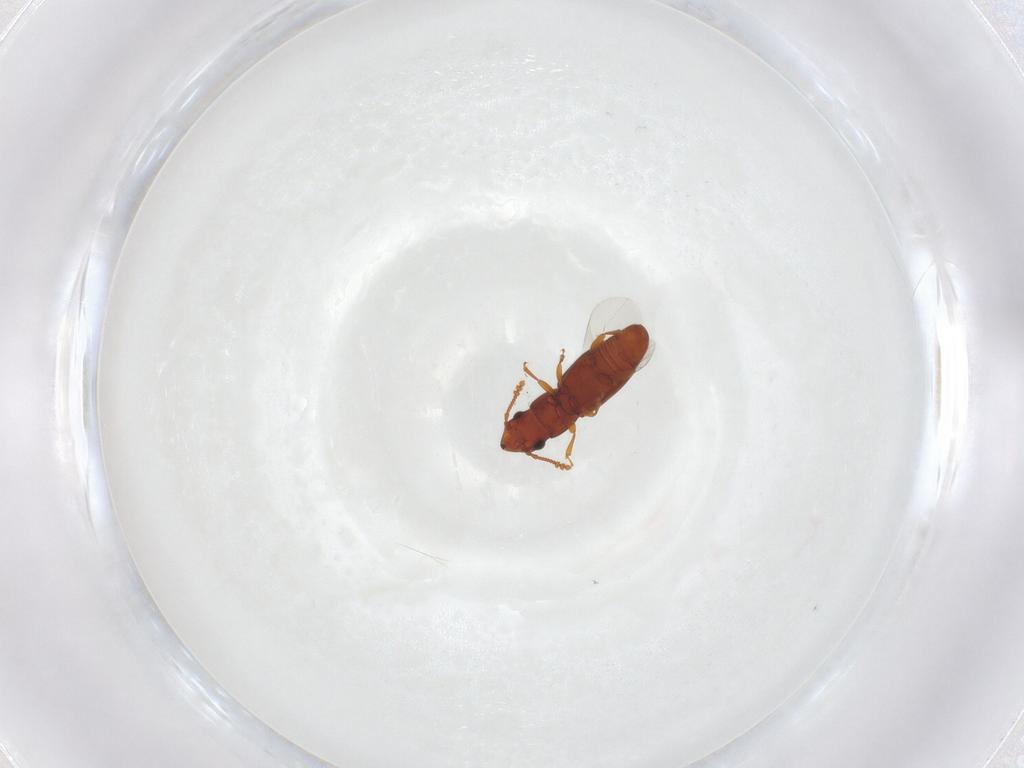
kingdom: Animalia
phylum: Arthropoda
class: Insecta
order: Coleoptera
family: Smicripidae
